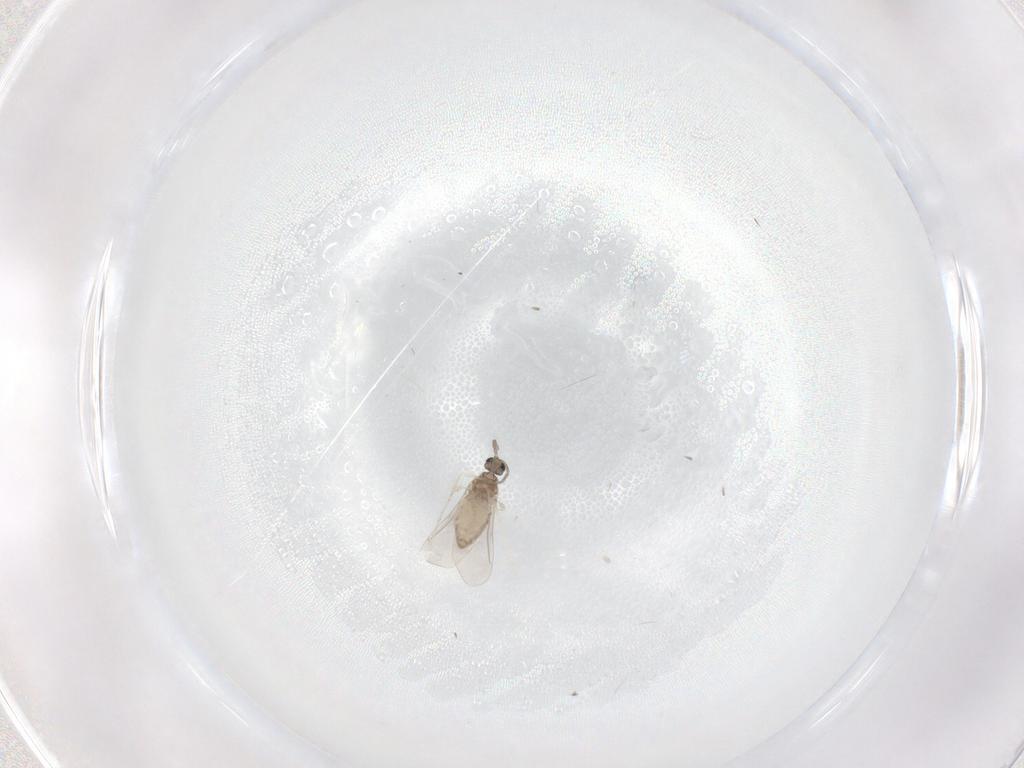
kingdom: Animalia
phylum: Arthropoda
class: Insecta
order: Diptera
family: Cecidomyiidae
